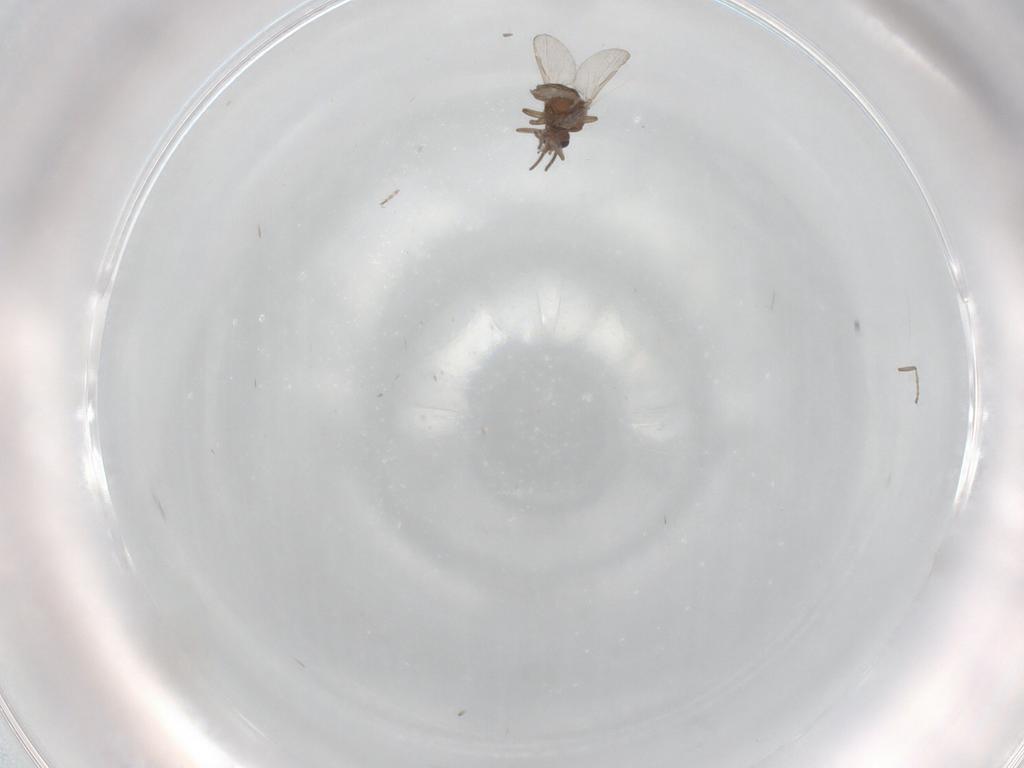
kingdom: Animalia
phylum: Arthropoda
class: Insecta
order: Diptera
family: Ceratopogonidae
